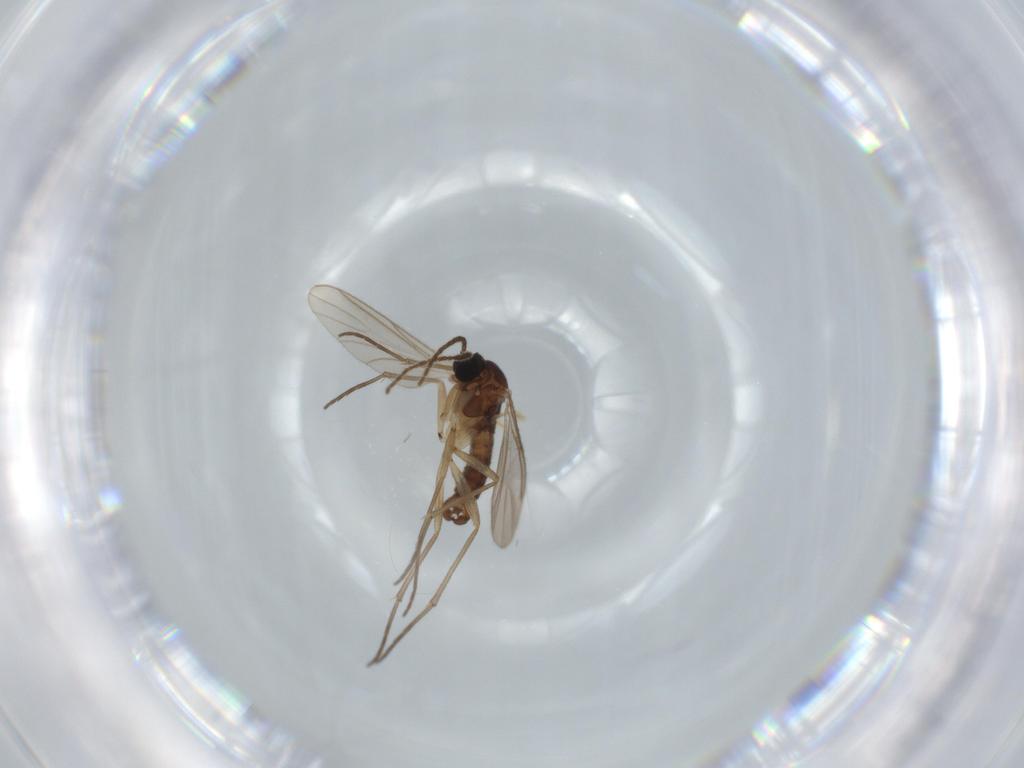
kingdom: Animalia
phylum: Arthropoda
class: Insecta
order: Diptera
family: Sciaridae
